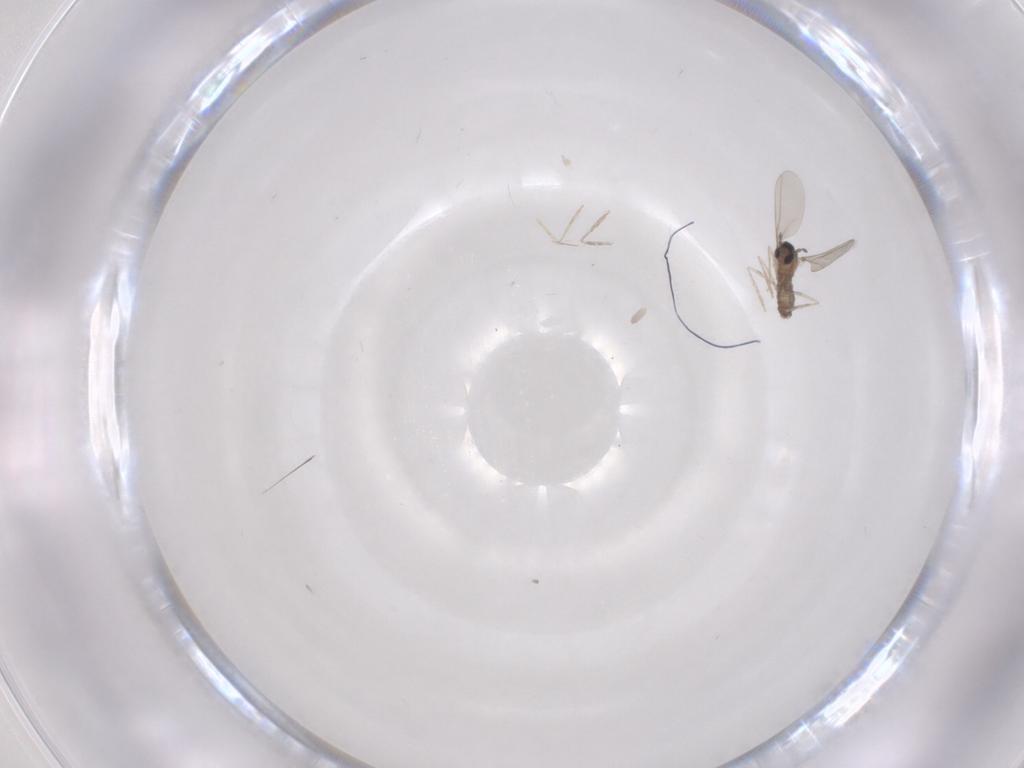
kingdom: Animalia
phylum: Arthropoda
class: Insecta
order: Diptera
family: Cecidomyiidae
